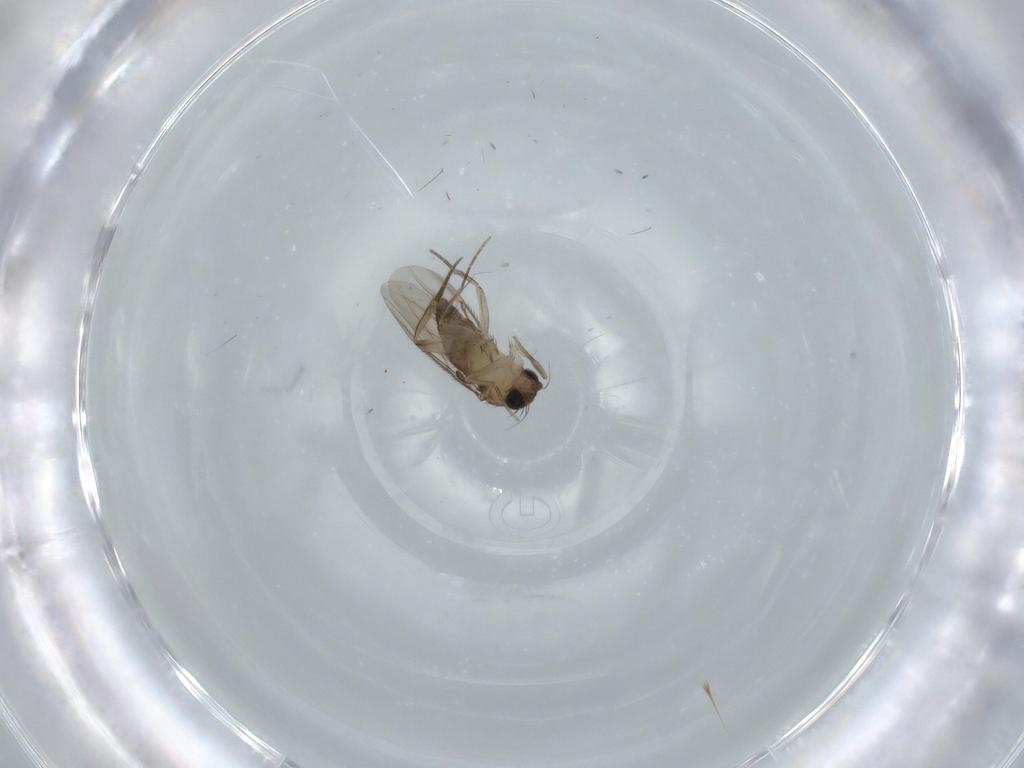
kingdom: Animalia
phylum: Arthropoda
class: Insecta
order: Diptera
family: Phoridae
